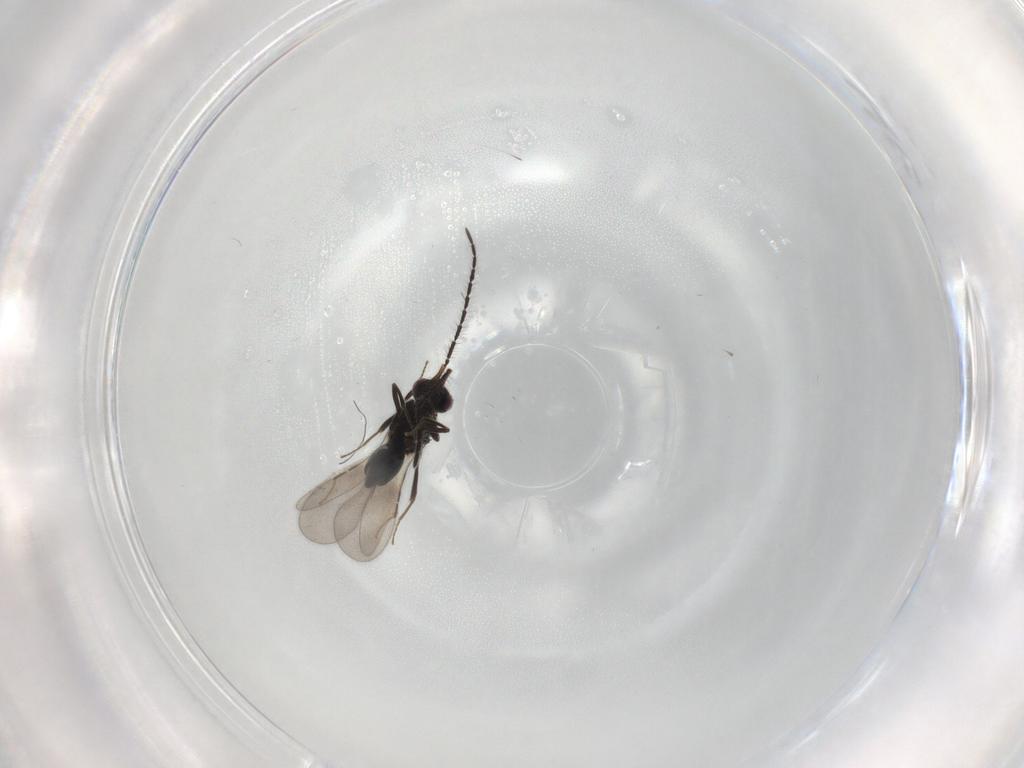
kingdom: Animalia
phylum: Arthropoda
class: Insecta
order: Hymenoptera
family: Ceraphronidae
